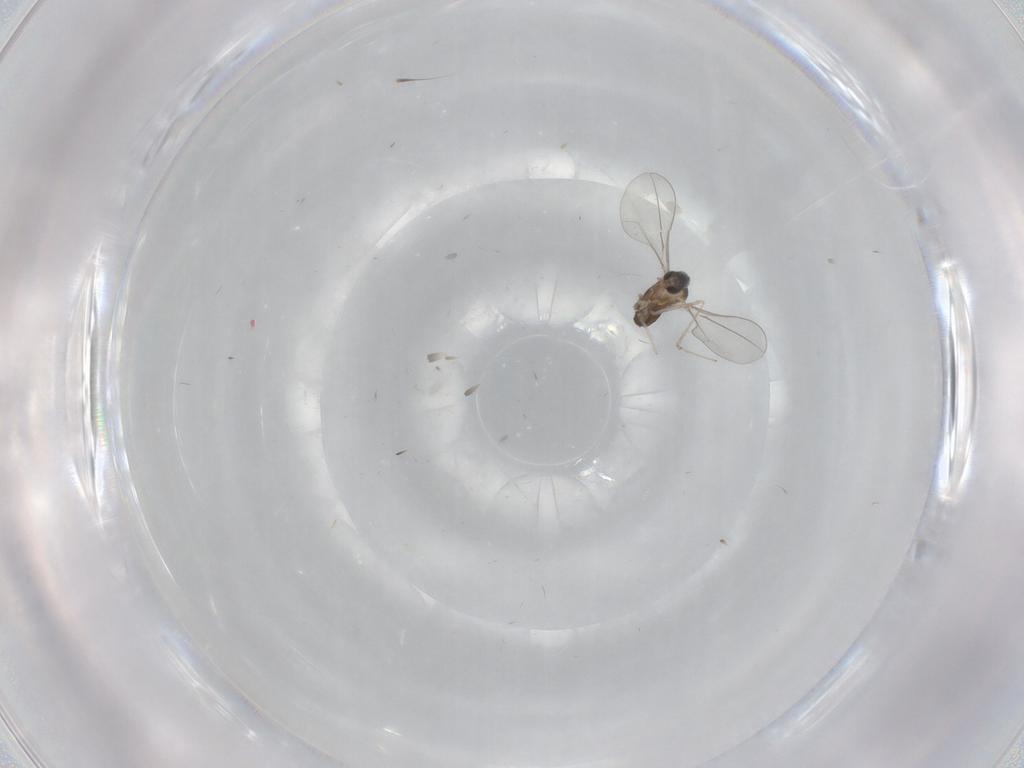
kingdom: Animalia
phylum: Arthropoda
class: Insecta
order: Diptera
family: Cecidomyiidae
